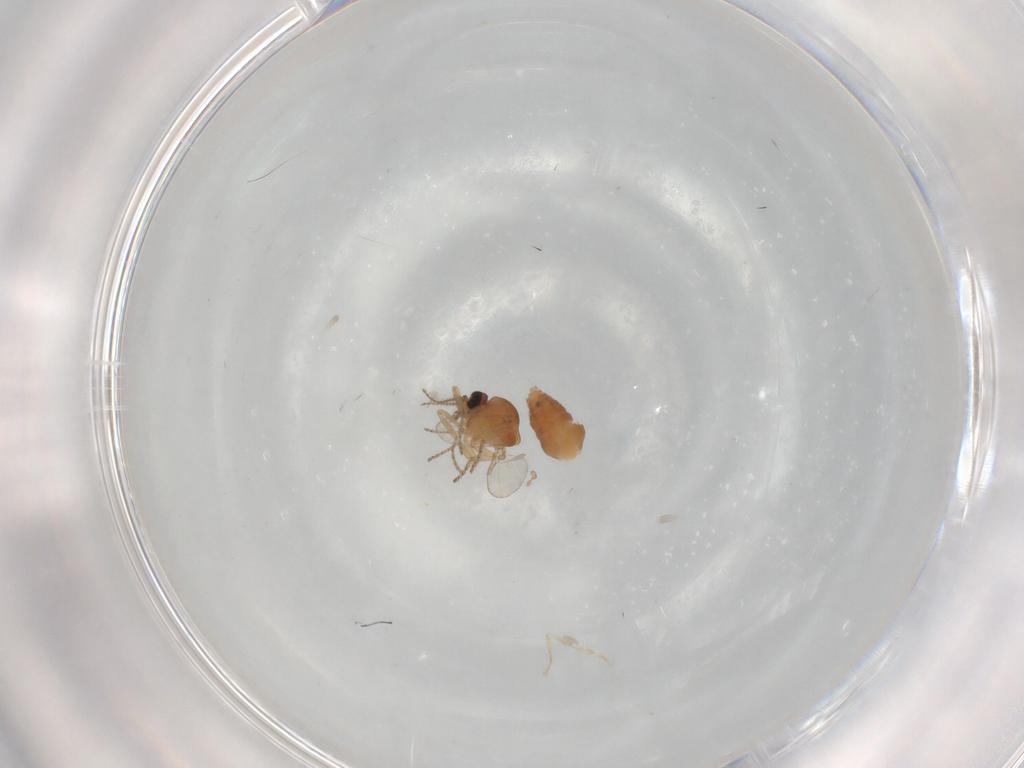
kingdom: Animalia
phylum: Arthropoda
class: Insecta
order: Diptera
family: Ceratopogonidae
